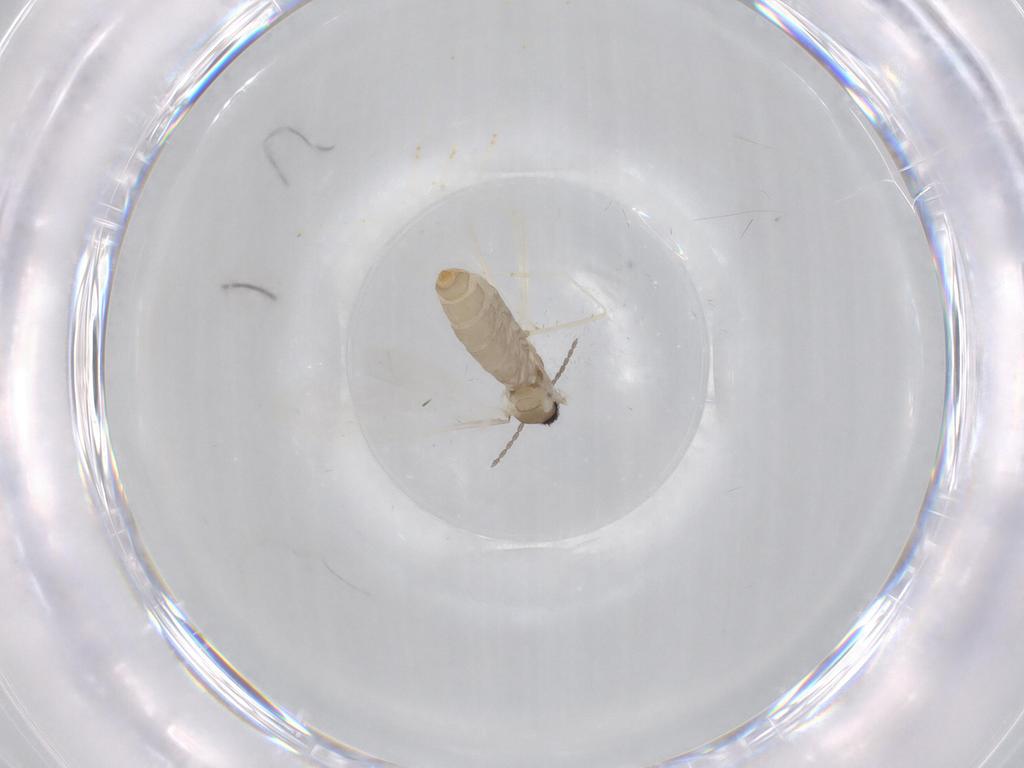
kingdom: Animalia
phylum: Arthropoda
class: Insecta
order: Diptera
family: Cecidomyiidae
